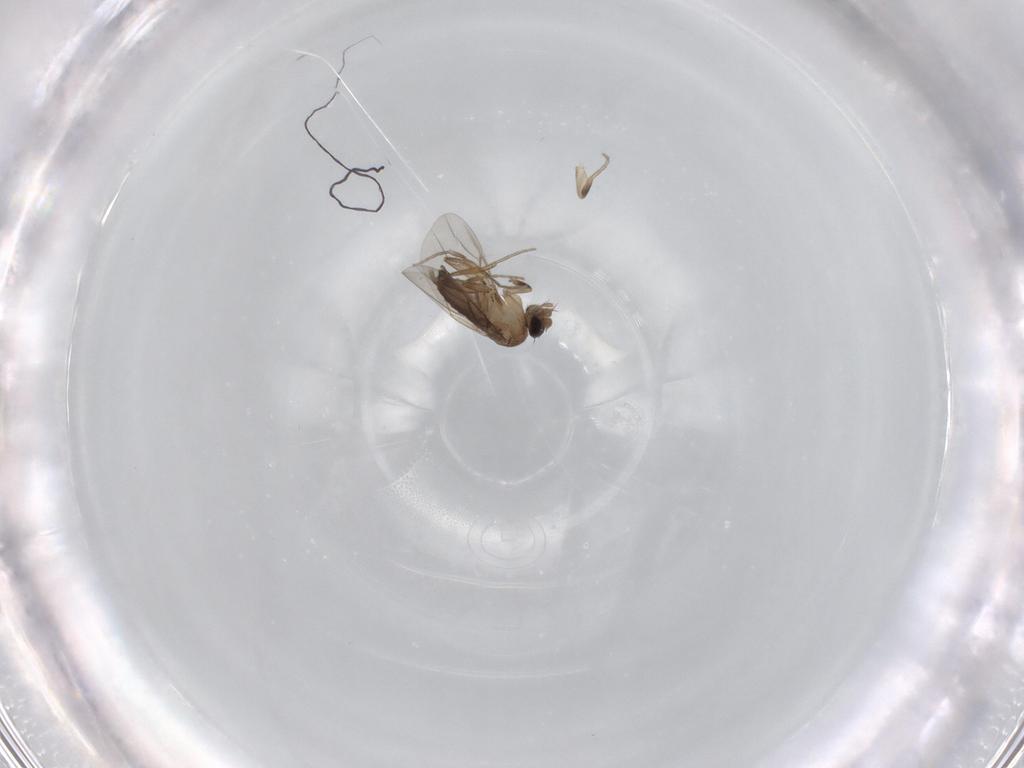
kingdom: Animalia
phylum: Arthropoda
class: Insecta
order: Diptera
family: Phoridae
